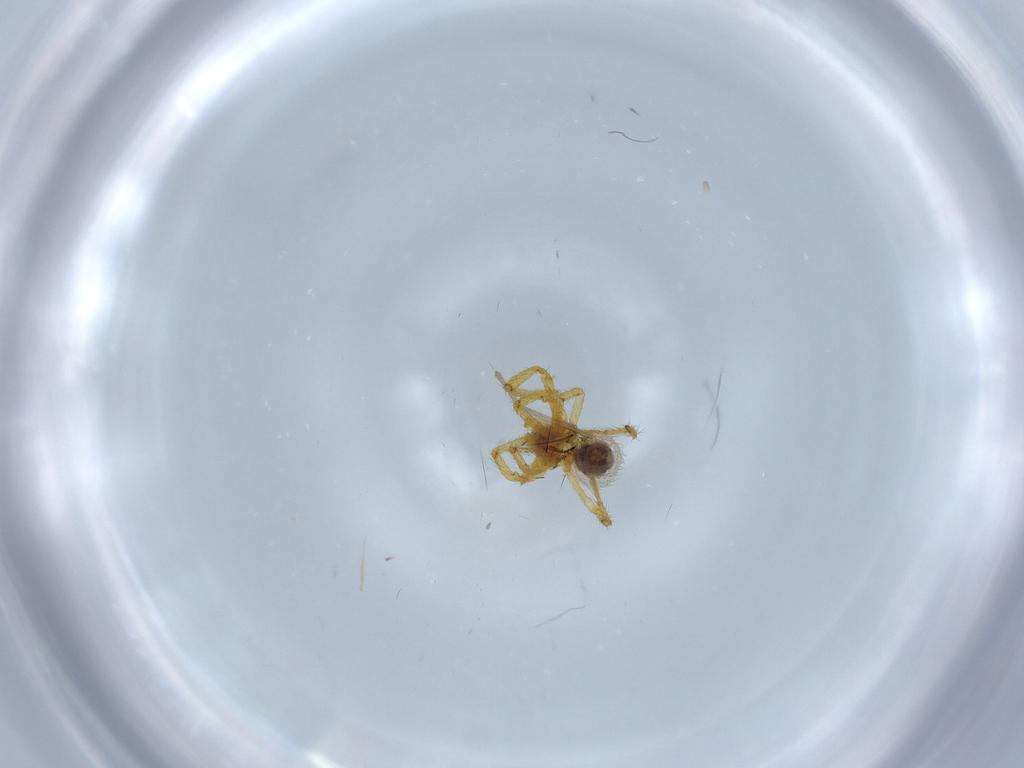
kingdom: Animalia
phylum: Arthropoda
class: Arachnida
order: Araneae
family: Theridiidae
